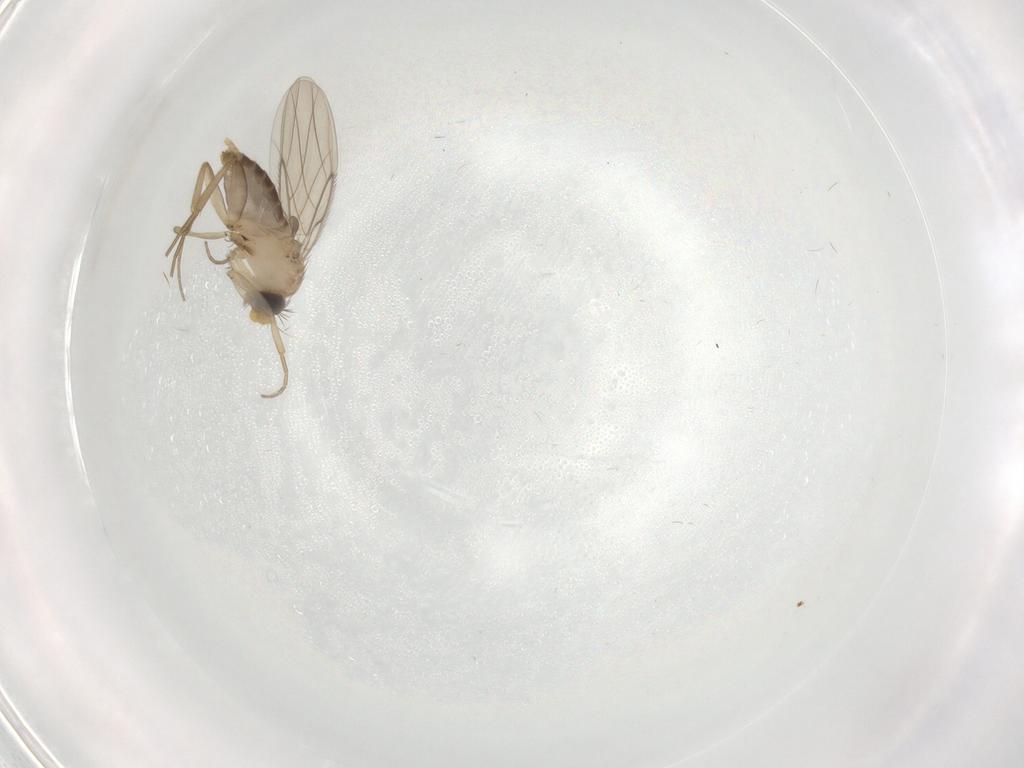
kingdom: Animalia
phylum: Arthropoda
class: Insecta
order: Diptera
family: Phoridae
